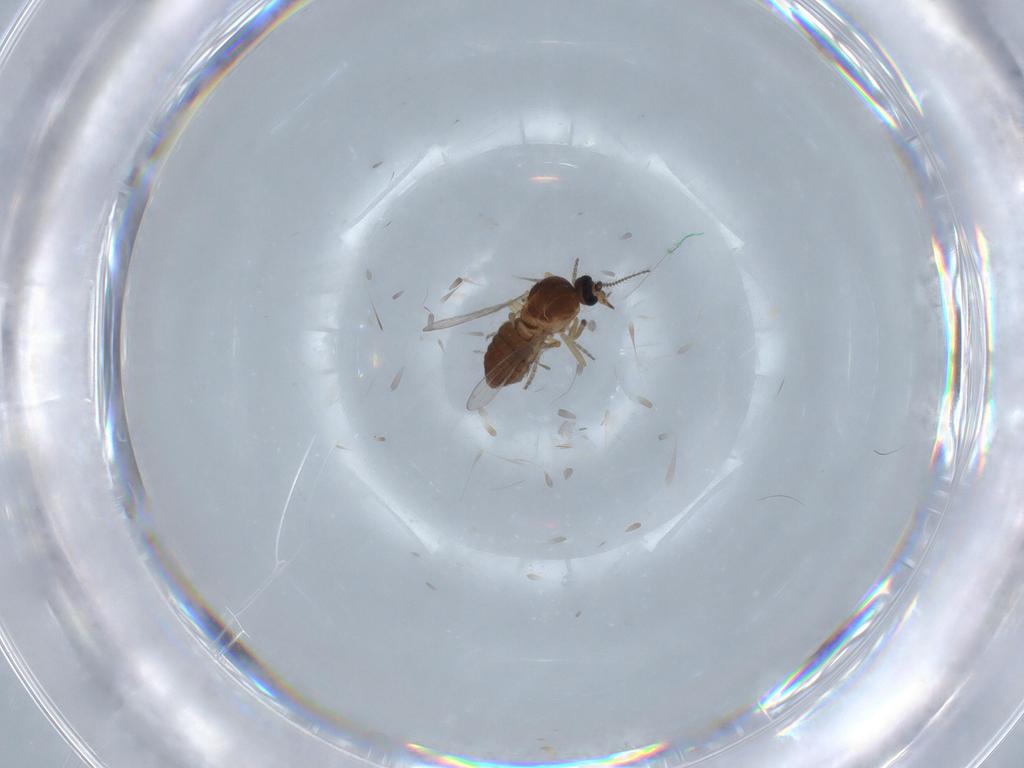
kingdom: Animalia
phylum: Arthropoda
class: Insecta
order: Diptera
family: Ceratopogonidae
